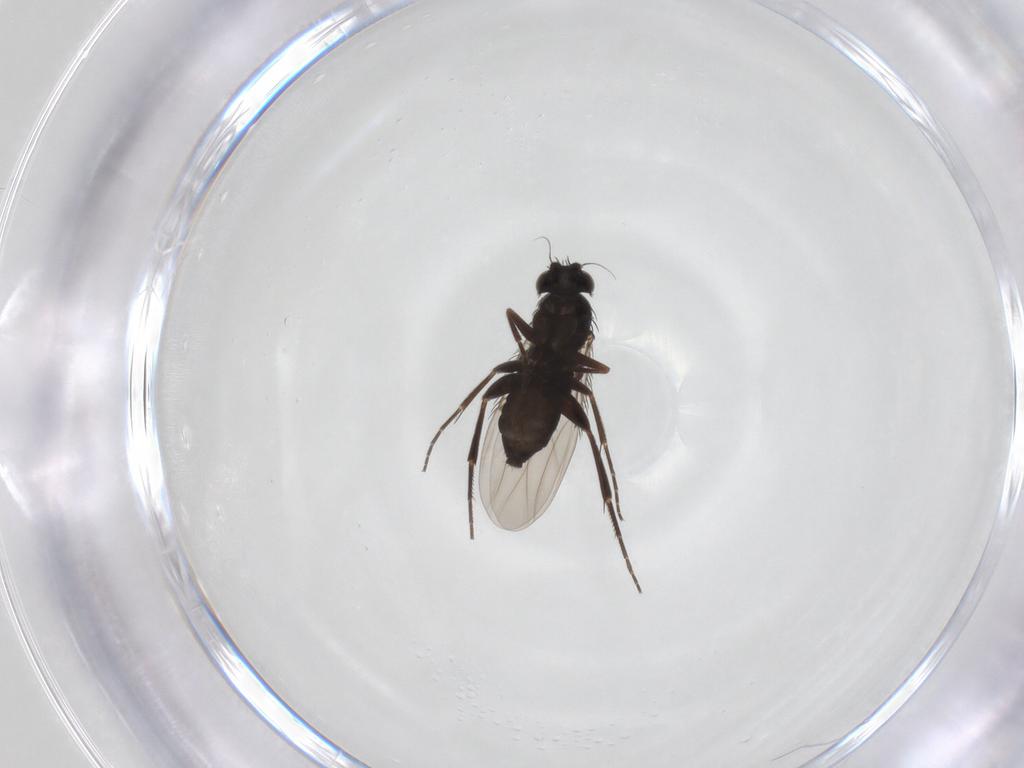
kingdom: Animalia
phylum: Arthropoda
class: Insecta
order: Diptera
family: Phoridae
